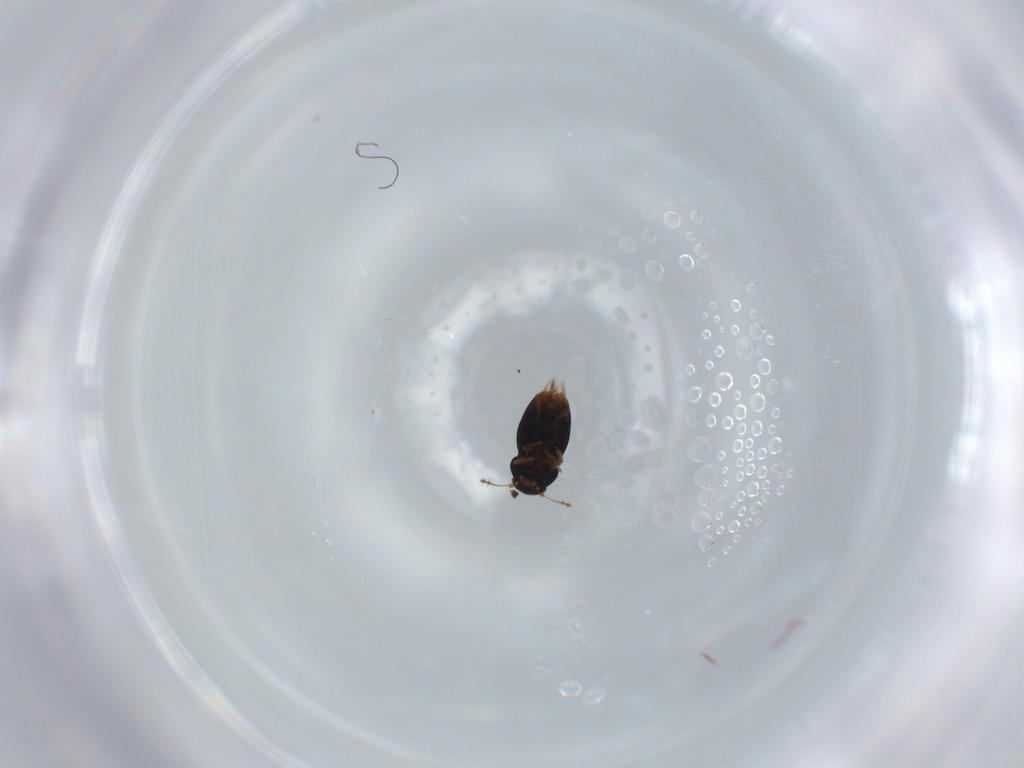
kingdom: Animalia
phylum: Arthropoda
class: Insecta
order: Coleoptera
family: Ptiliidae
